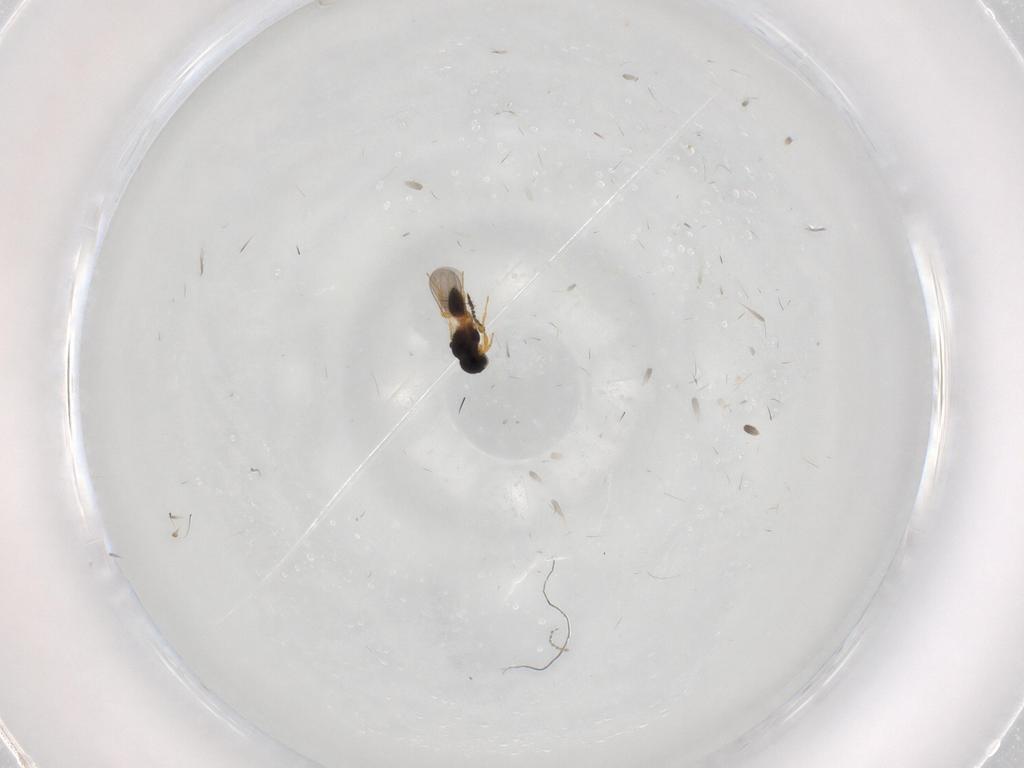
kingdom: Animalia
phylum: Arthropoda
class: Insecta
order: Hymenoptera
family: Platygastridae
